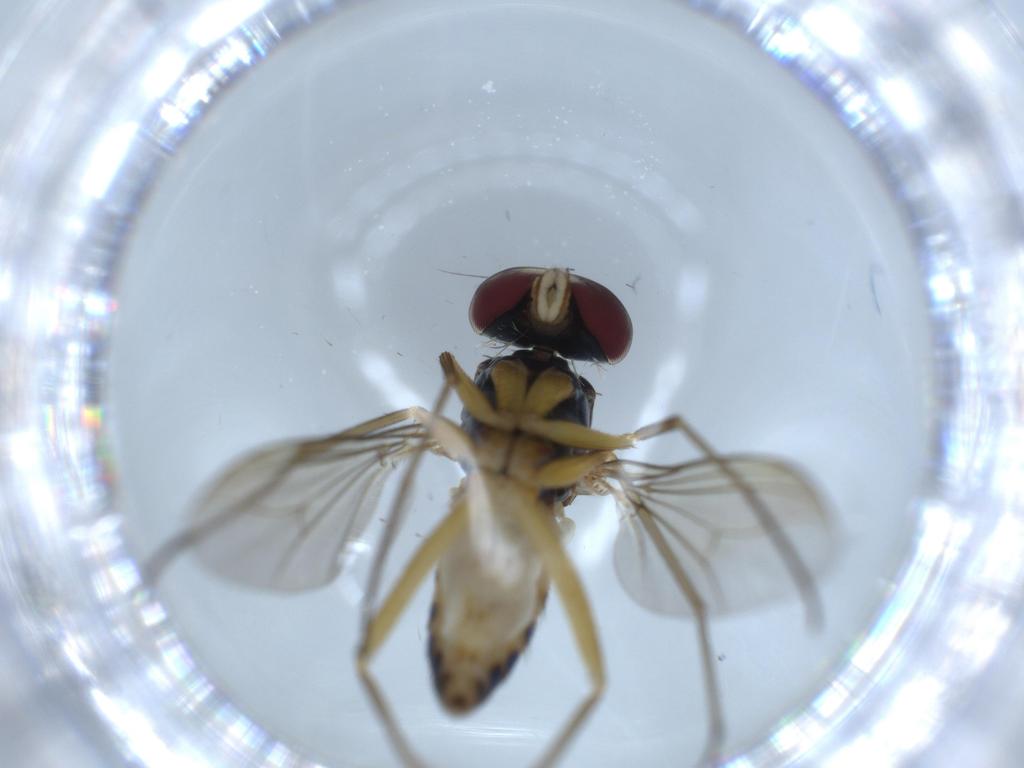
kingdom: Animalia
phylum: Arthropoda
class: Insecta
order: Diptera
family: Dolichopodidae
